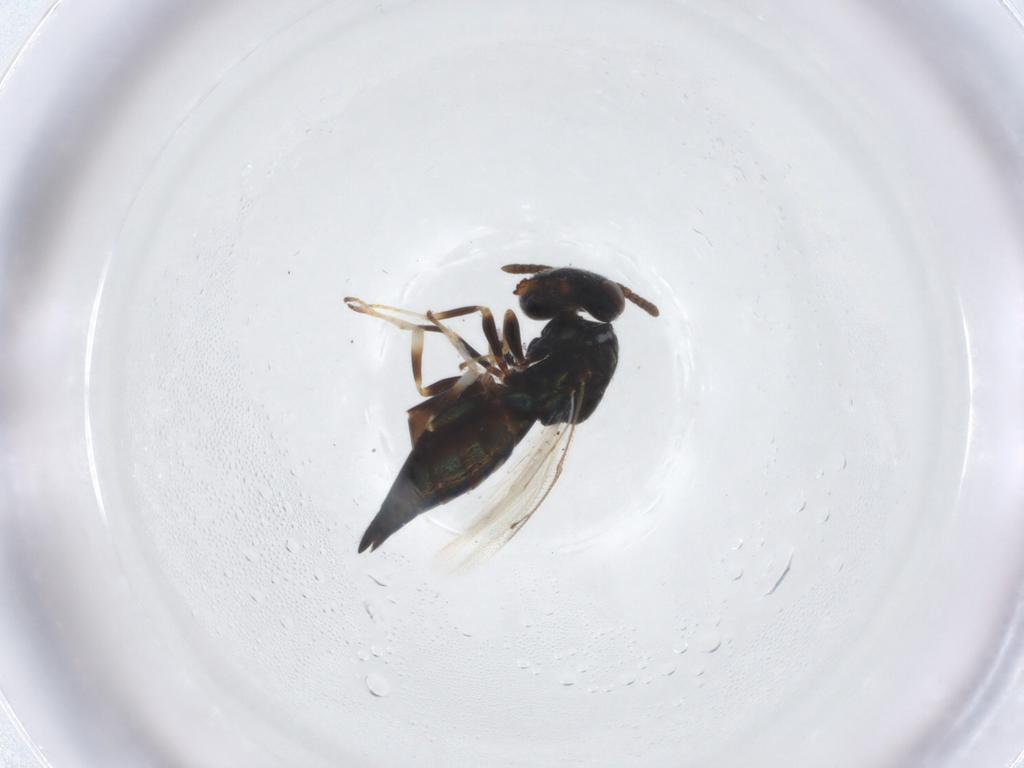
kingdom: Animalia
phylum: Arthropoda
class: Insecta
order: Hymenoptera
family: Pteromalidae
